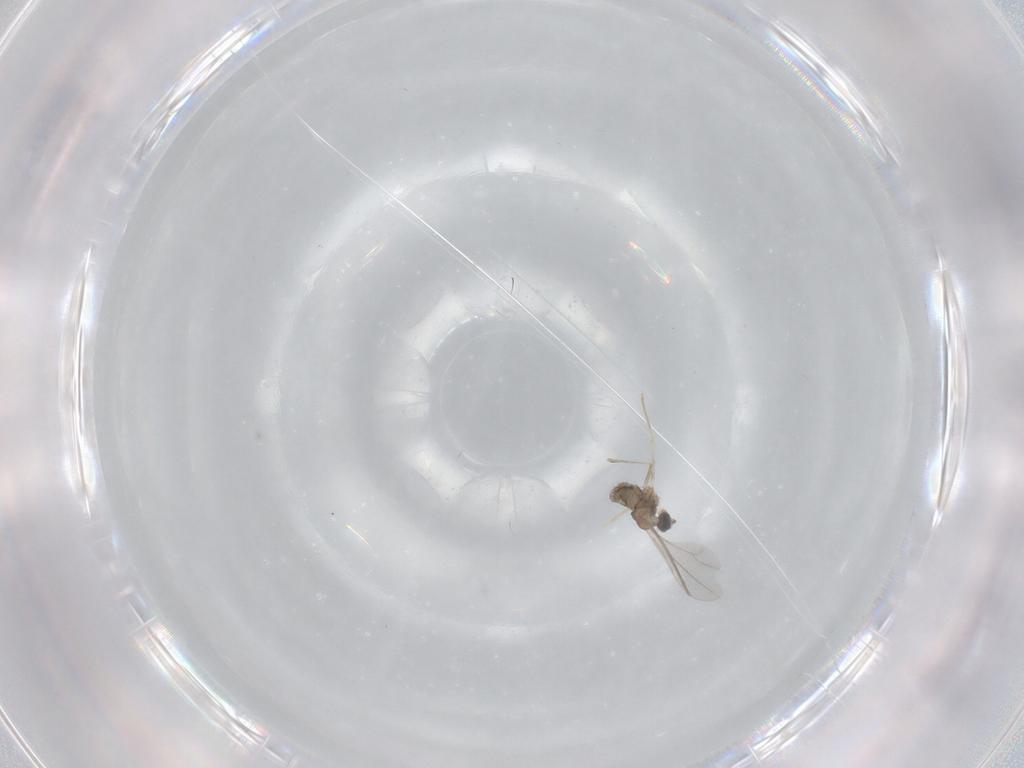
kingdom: Animalia
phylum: Arthropoda
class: Insecta
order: Diptera
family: Cecidomyiidae
